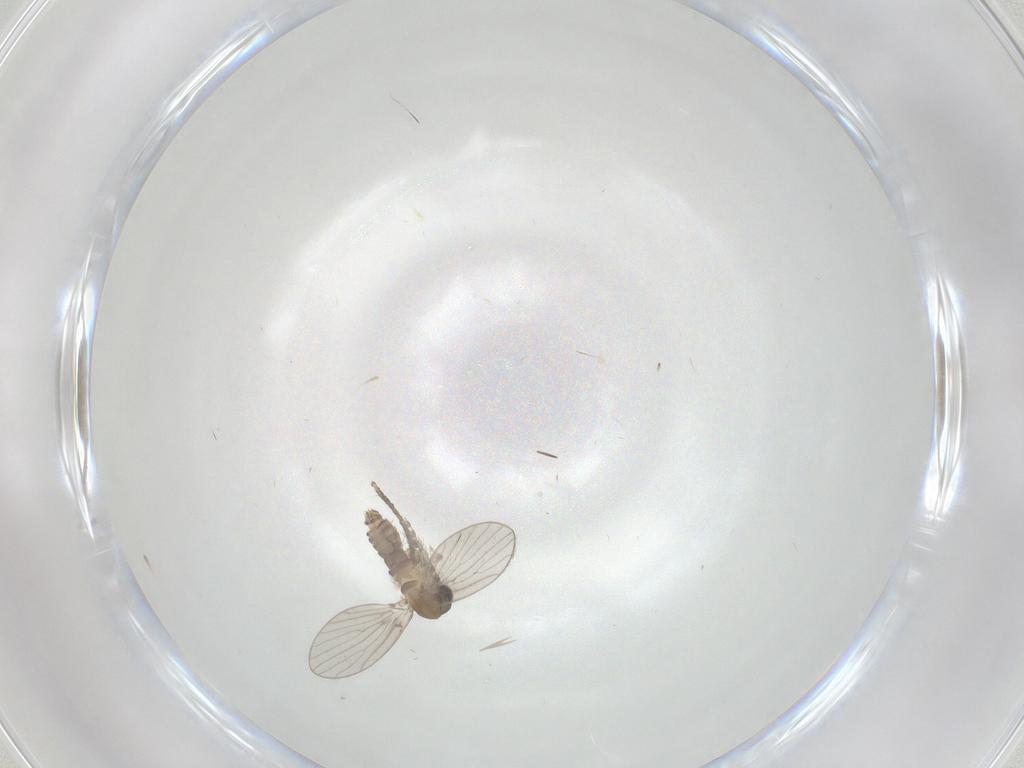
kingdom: Animalia
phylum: Arthropoda
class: Insecta
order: Diptera
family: Psychodidae
